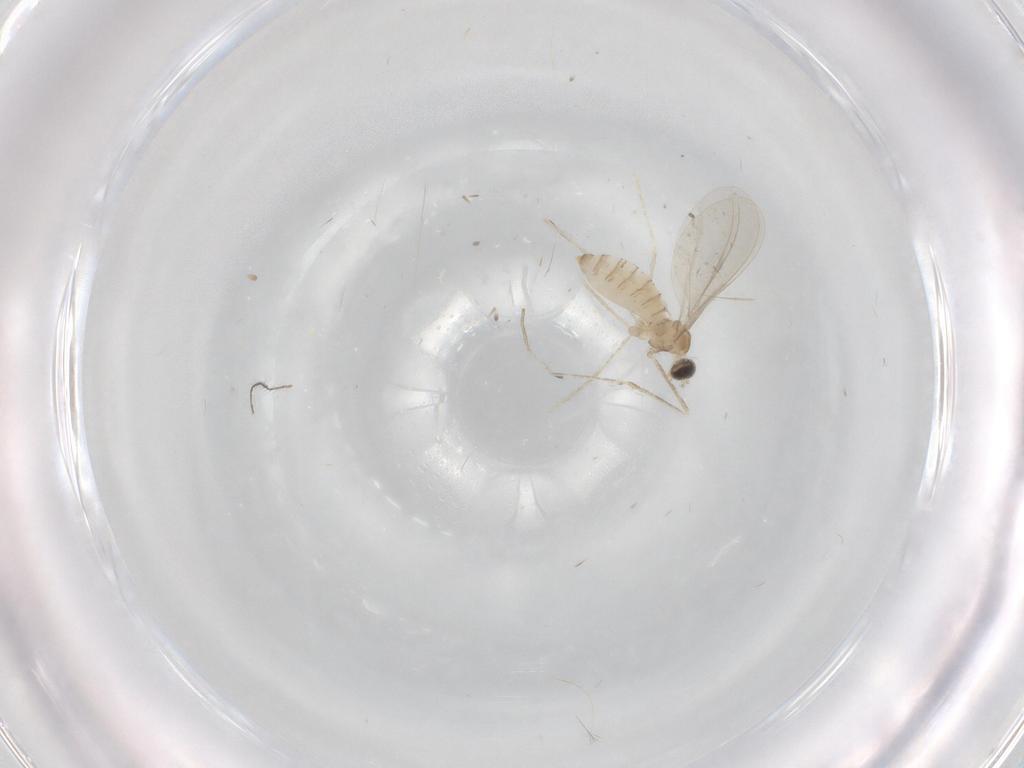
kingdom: Animalia
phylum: Arthropoda
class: Insecta
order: Diptera
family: Cecidomyiidae
